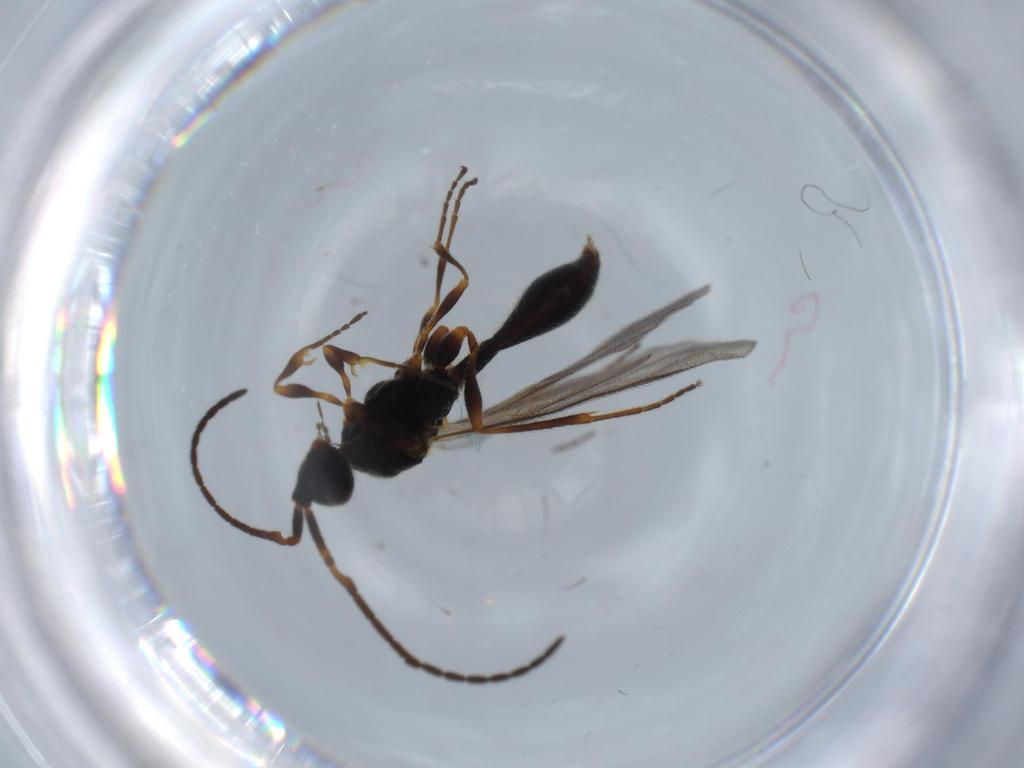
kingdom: Animalia
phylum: Arthropoda
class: Insecta
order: Hymenoptera
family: Diapriidae
